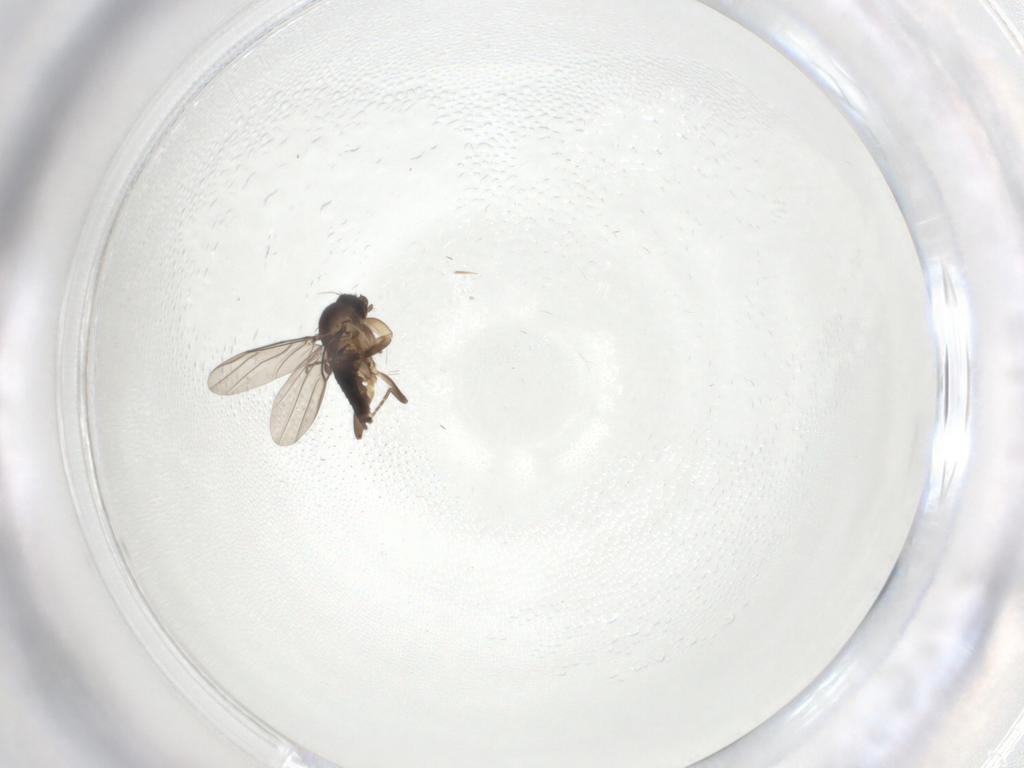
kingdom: Animalia
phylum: Arthropoda
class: Insecta
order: Diptera
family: Phoridae
